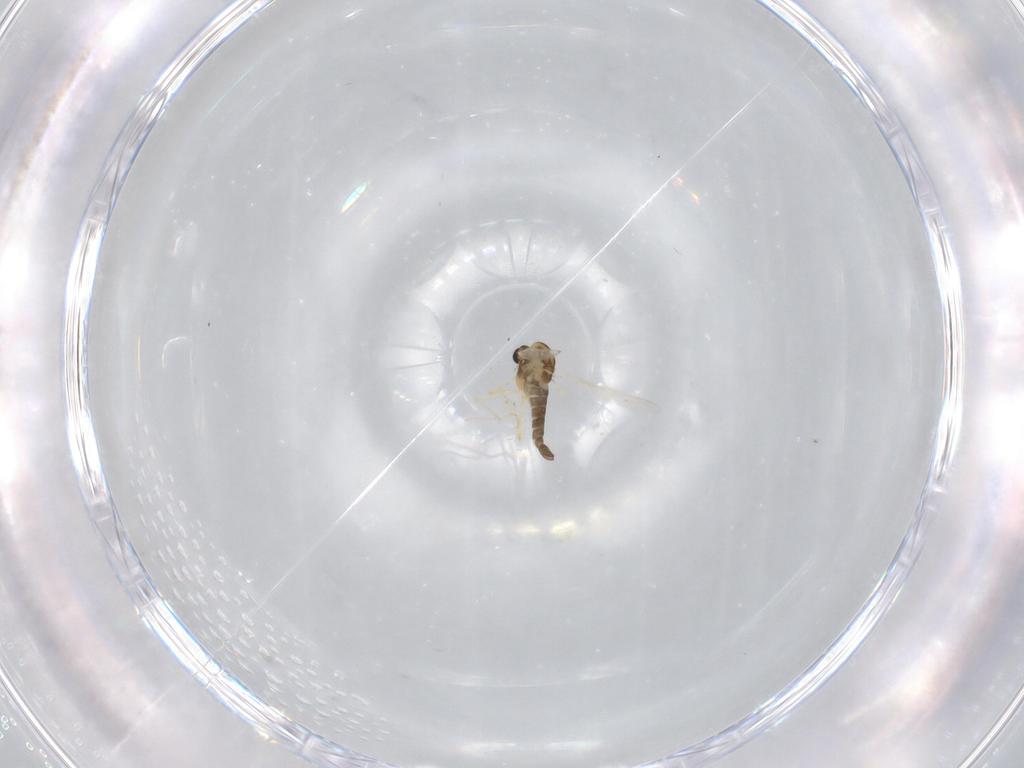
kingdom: Animalia
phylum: Arthropoda
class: Insecta
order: Diptera
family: Chironomidae
